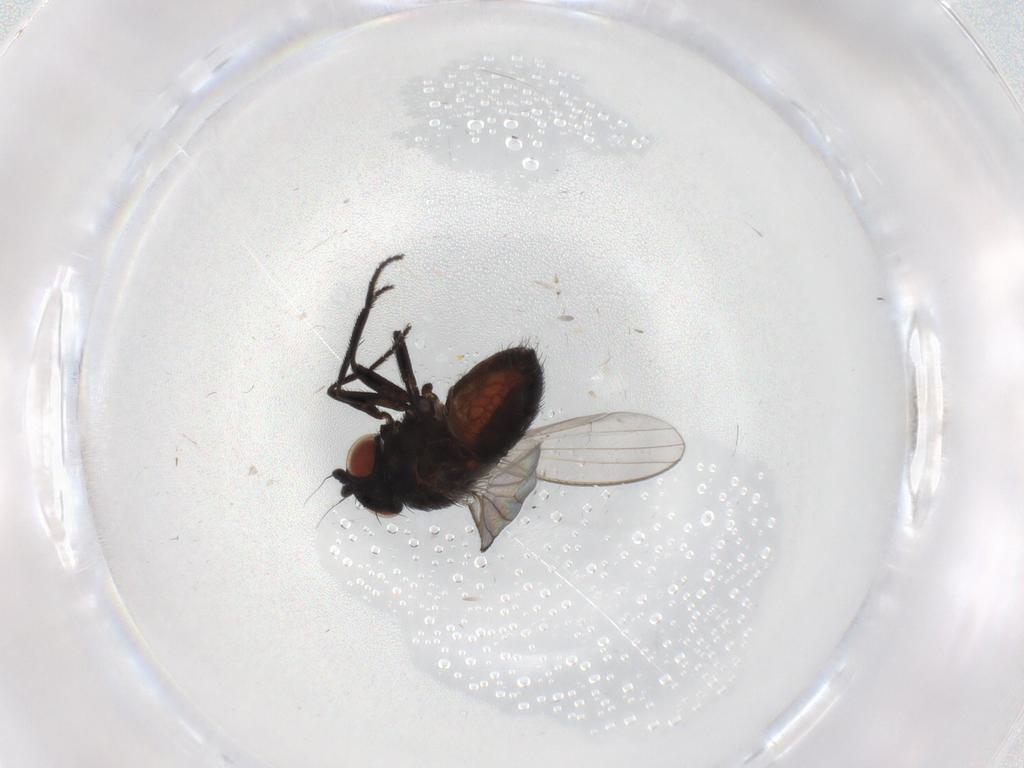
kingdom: Animalia
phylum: Arthropoda
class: Insecta
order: Diptera
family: Milichiidae
